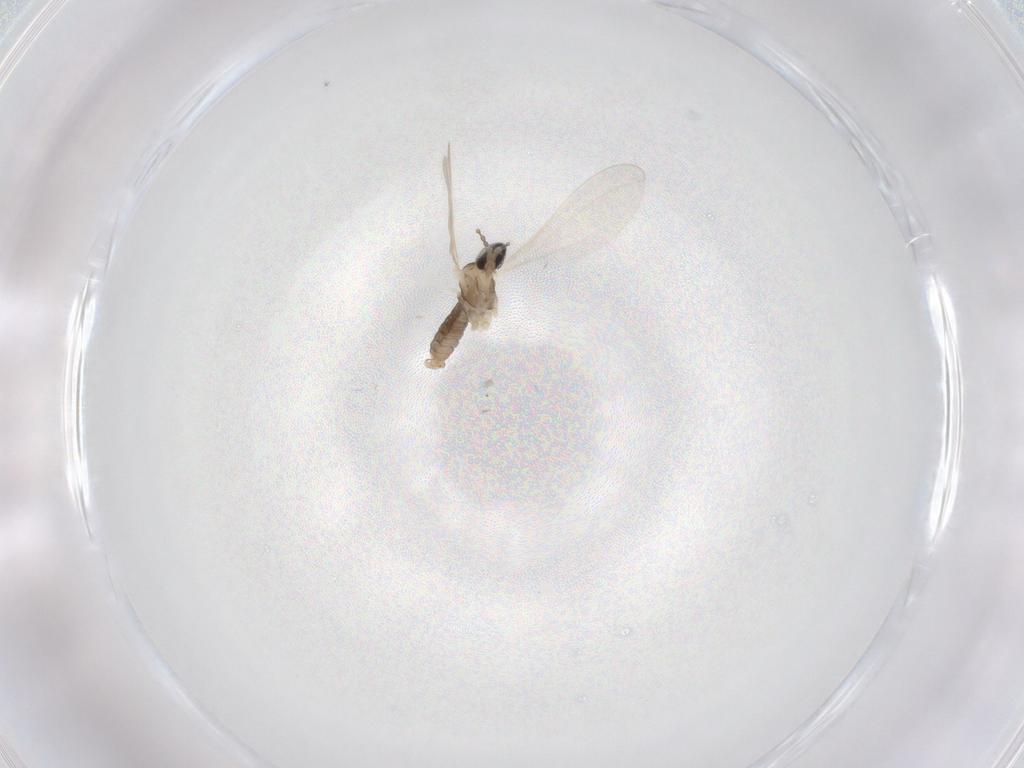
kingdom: Animalia
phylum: Arthropoda
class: Insecta
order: Diptera
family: Cecidomyiidae
